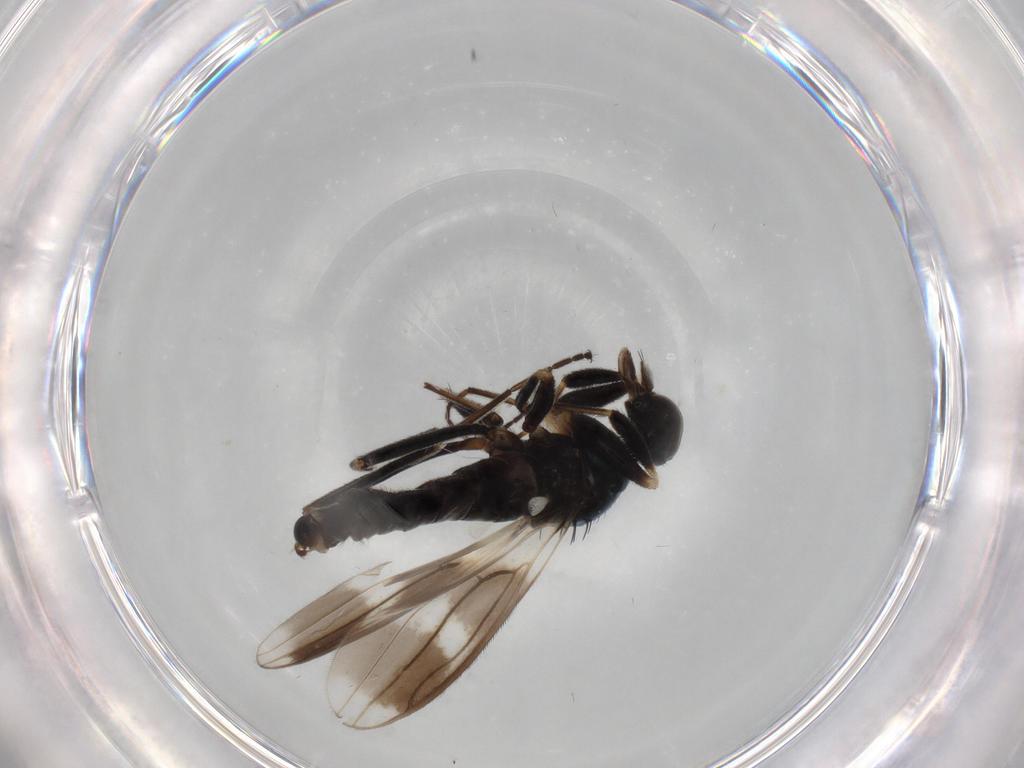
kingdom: Animalia
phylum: Arthropoda
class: Insecta
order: Diptera
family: Hybotidae
